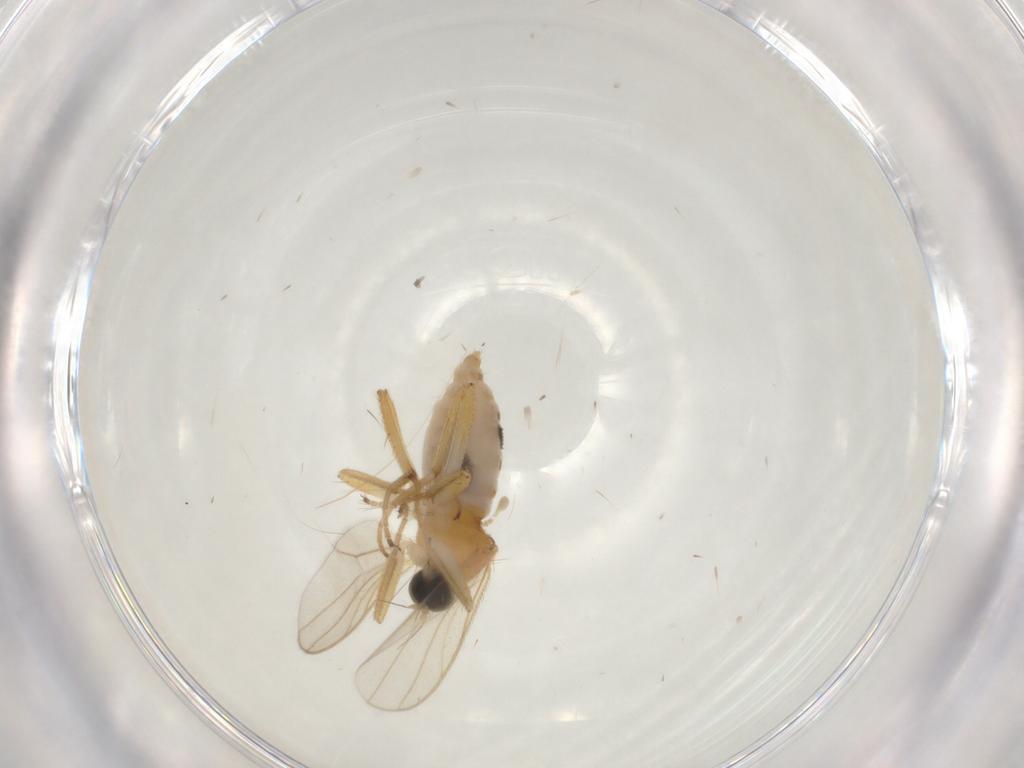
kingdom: Animalia
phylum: Arthropoda
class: Insecta
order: Diptera
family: Hybotidae
